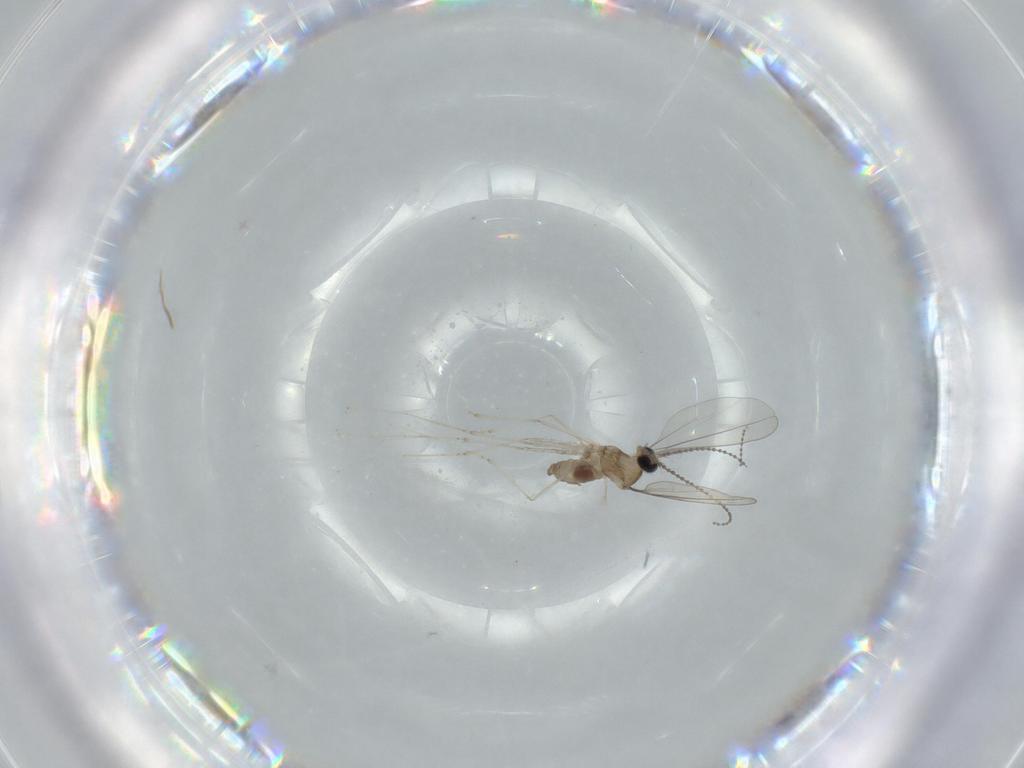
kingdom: Animalia
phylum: Arthropoda
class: Insecta
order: Diptera
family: Cecidomyiidae
